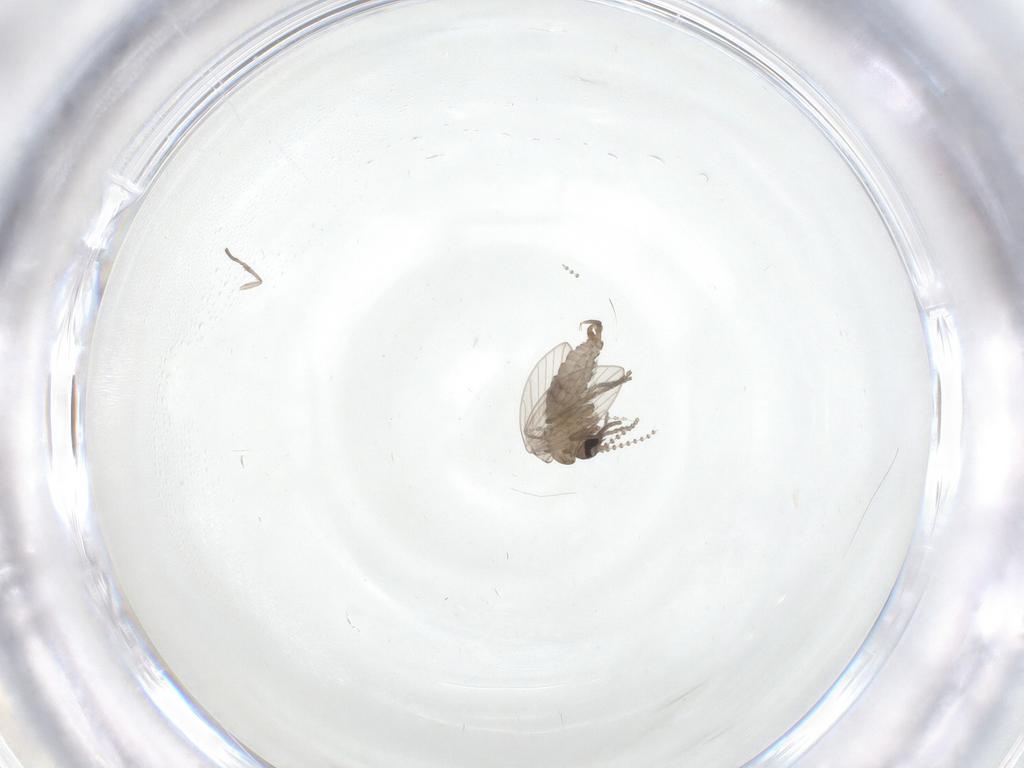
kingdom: Animalia
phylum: Arthropoda
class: Insecta
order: Diptera
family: Psychodidae
